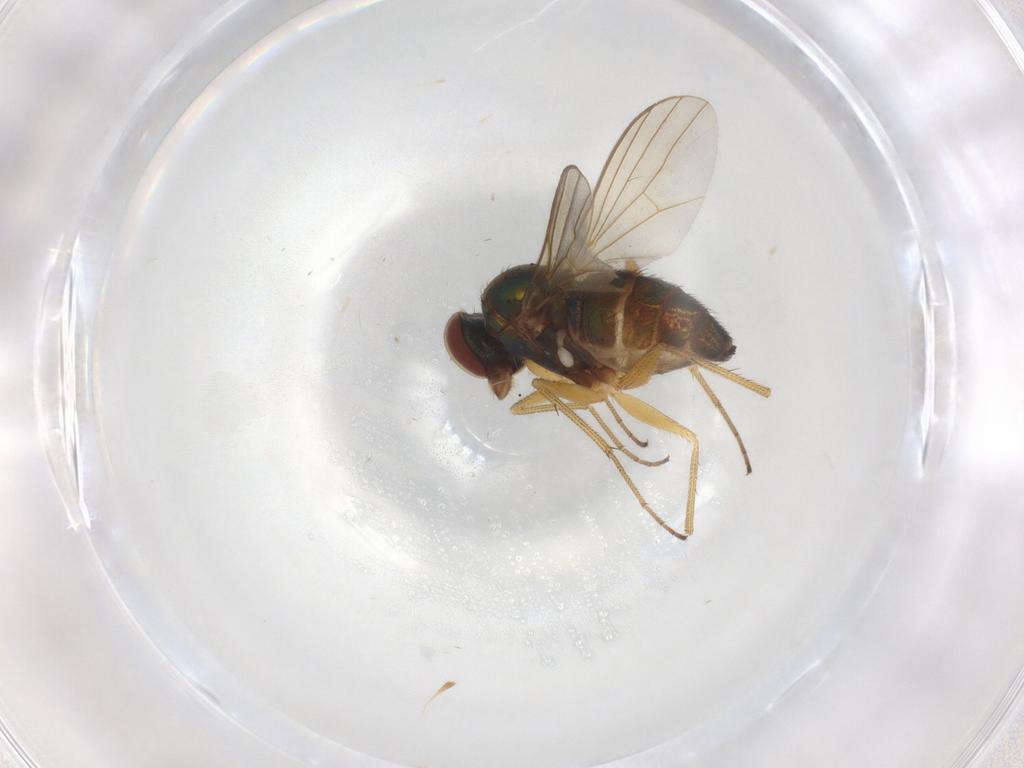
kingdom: Animalia
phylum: Arthropoda
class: Insecta
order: Diptera
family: Dolichopodidae
